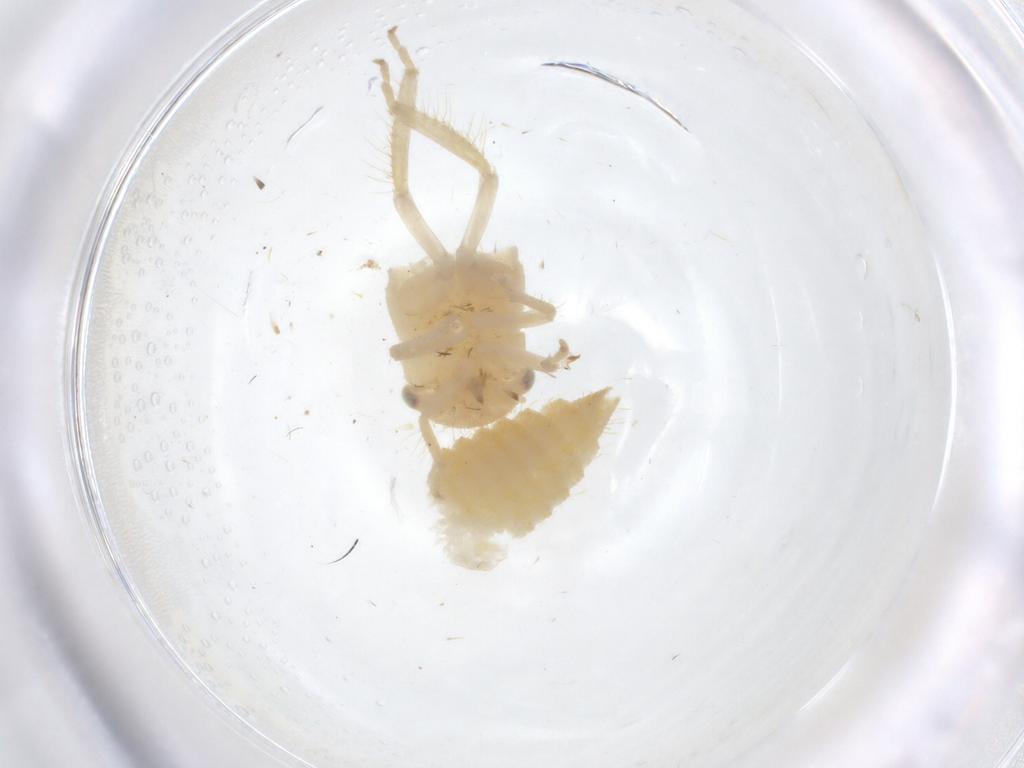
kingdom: Animalia
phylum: Arthropoda
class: Insecta
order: Hemiptera
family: Cicadellidae
